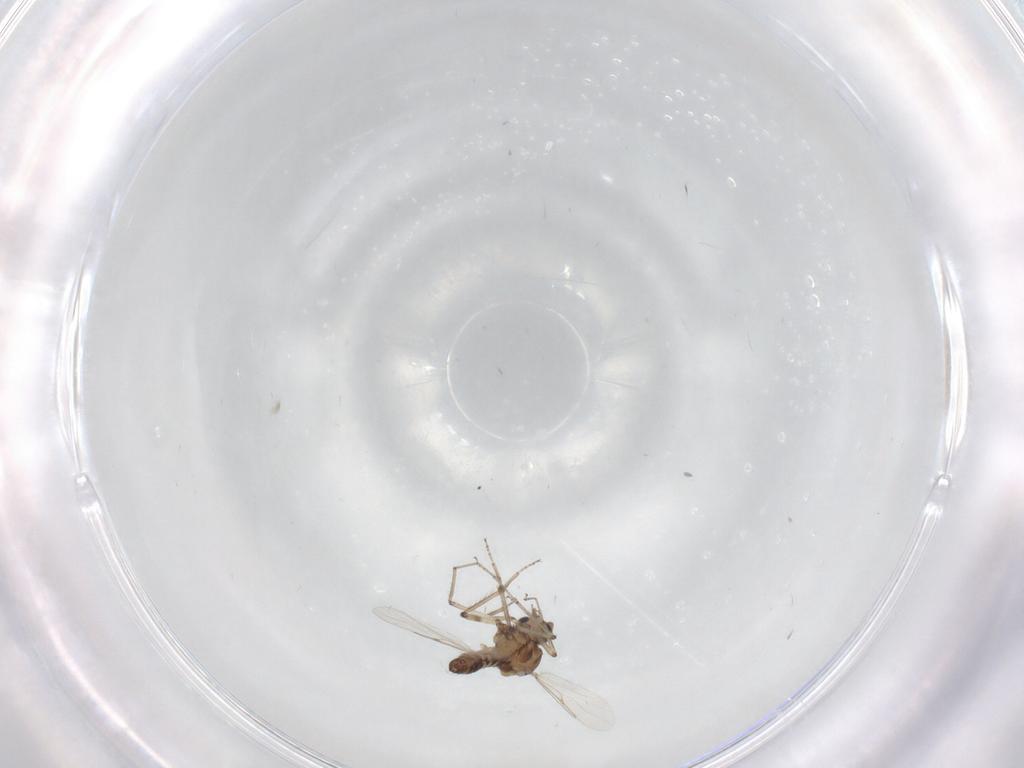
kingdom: Animalia
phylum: Arthropoda
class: Insecta
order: Diptera
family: Ceratopogonidae
